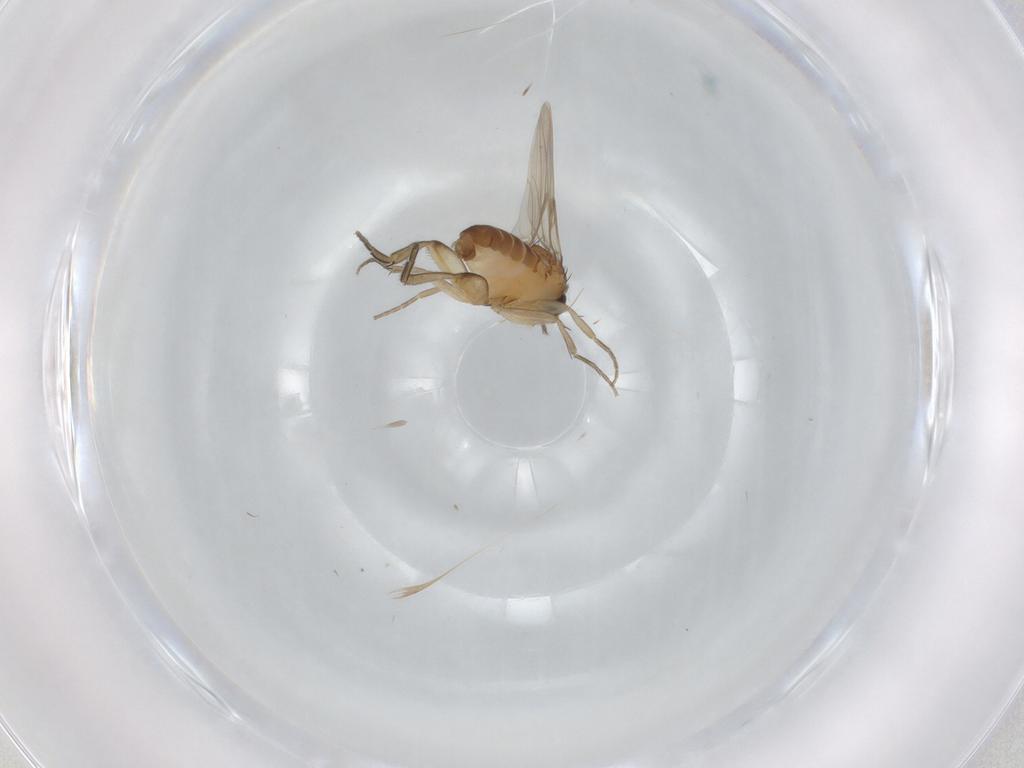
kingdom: Animalia
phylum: Arthropoda
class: Insecta
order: Diptera
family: Phoridae
